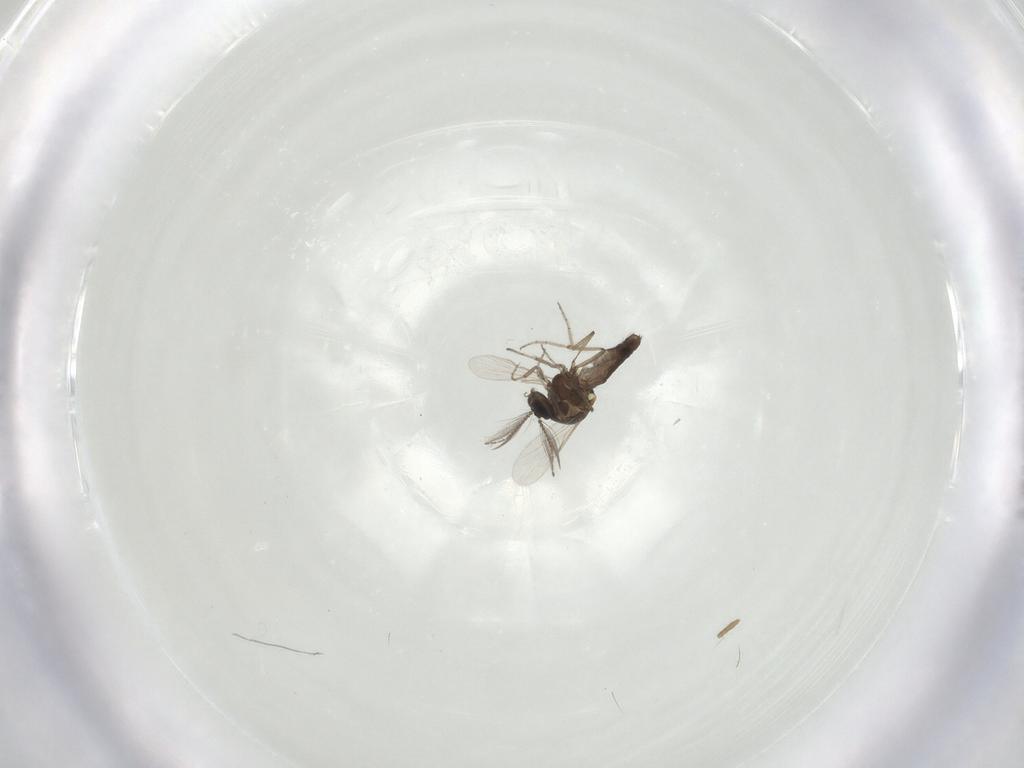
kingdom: Animalia
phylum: Arthropoda
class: Insecta
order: Hymenoptera
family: Formicidae
